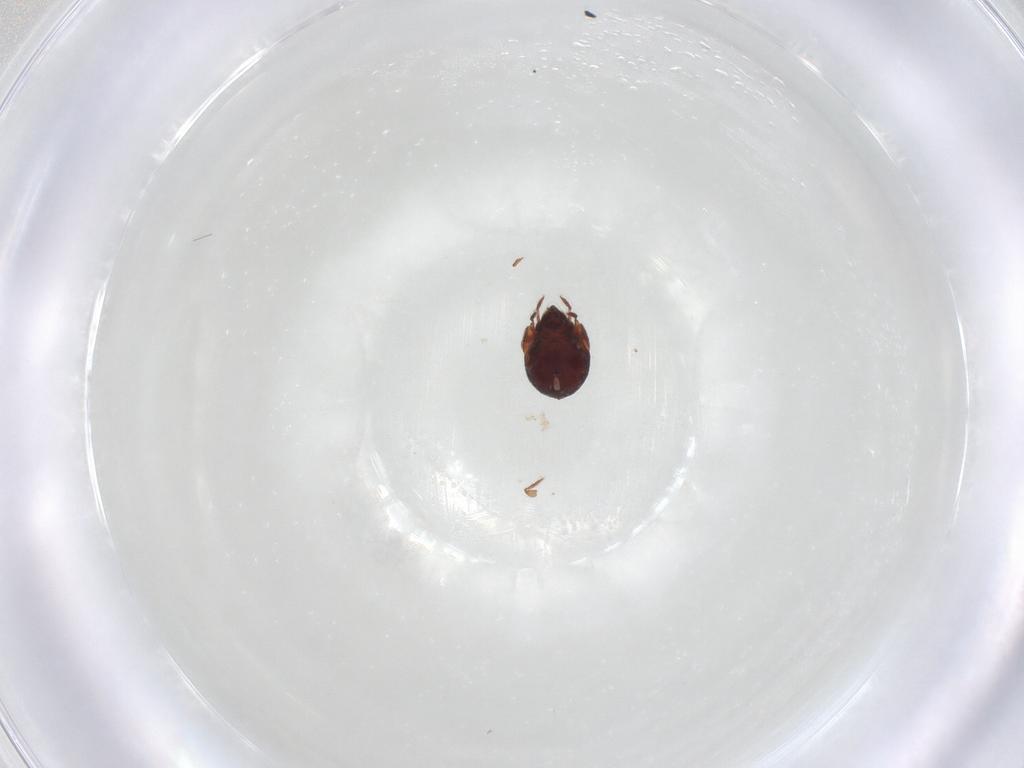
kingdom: Animalia
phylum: Arthropoda
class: Arachnida
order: Sarcoptiformes
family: Humerobatidae
